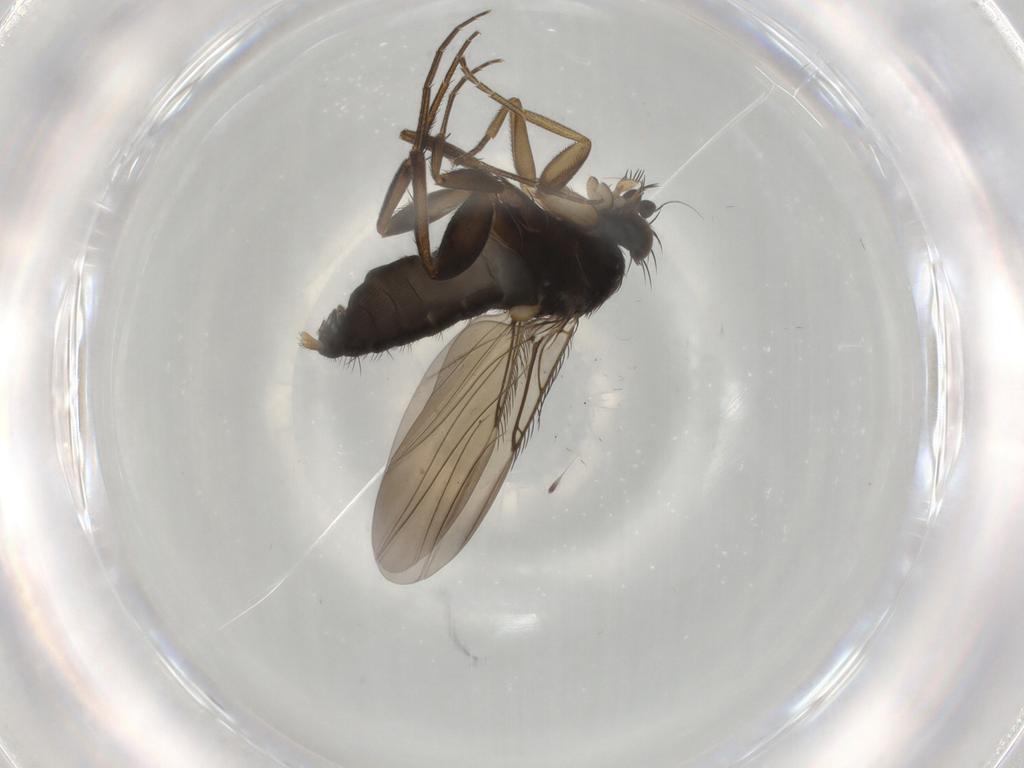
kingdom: Animalia
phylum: Arthropoda
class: Insecta
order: Diptera
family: Phoridae
